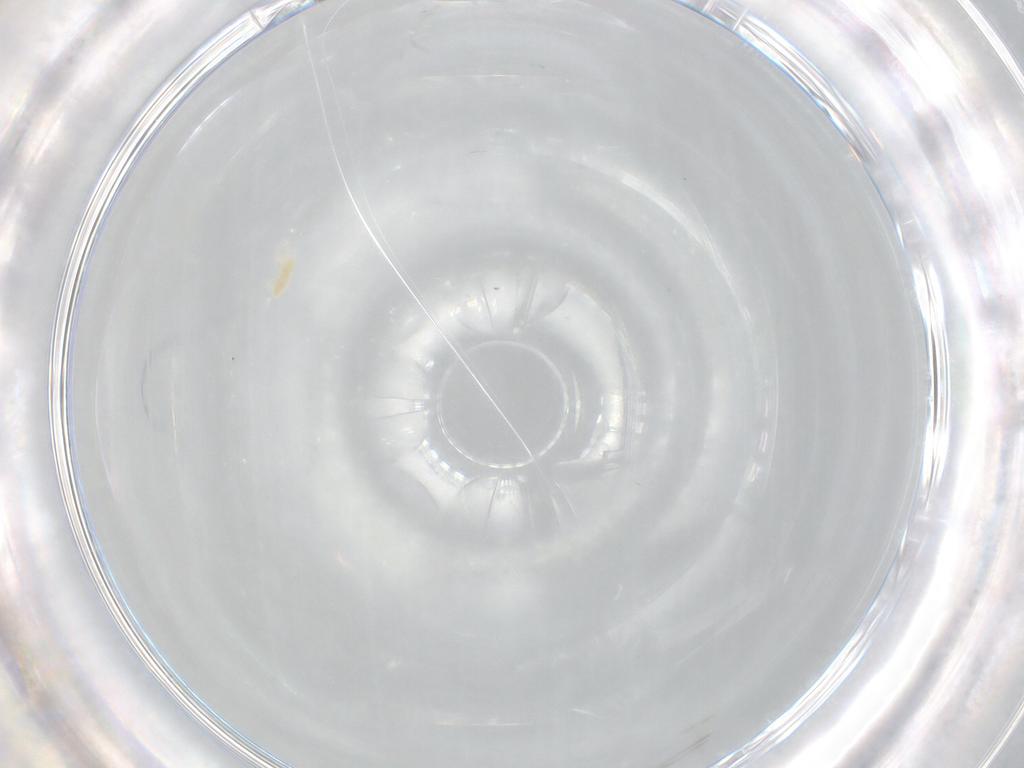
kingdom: Animalia
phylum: Arthropoda
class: Arachnida
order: Trombidiformes
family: Eupodidae
